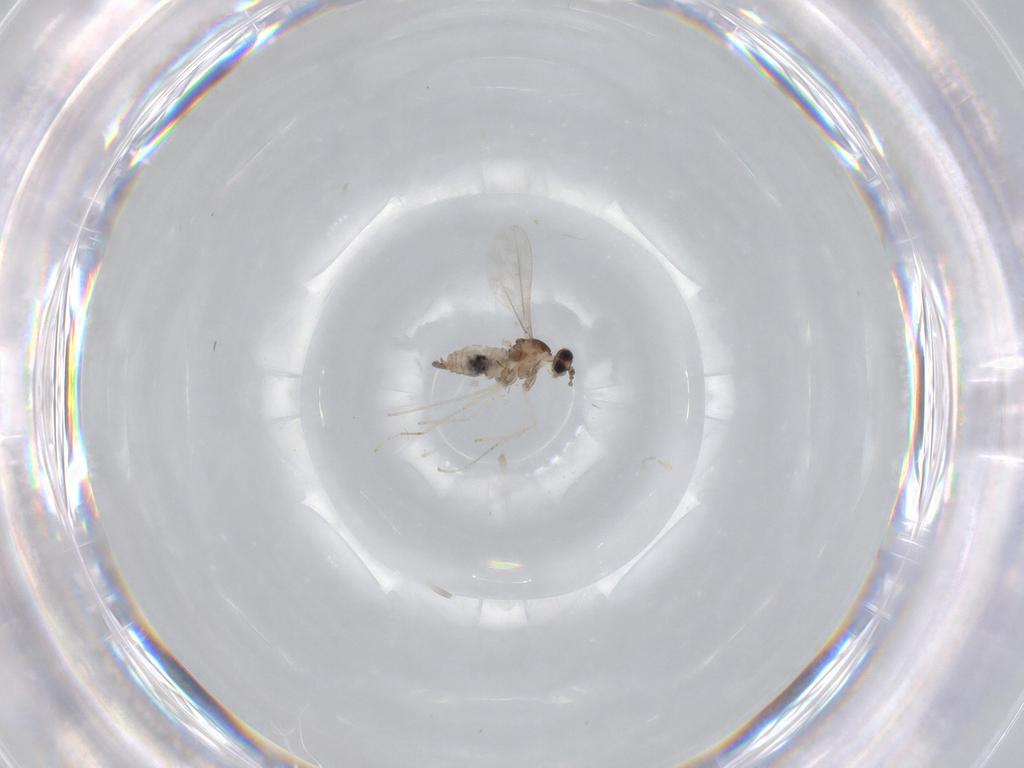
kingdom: Animalia
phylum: Arthropoda
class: Insecta
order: Diptera
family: Cecidomyiidae
